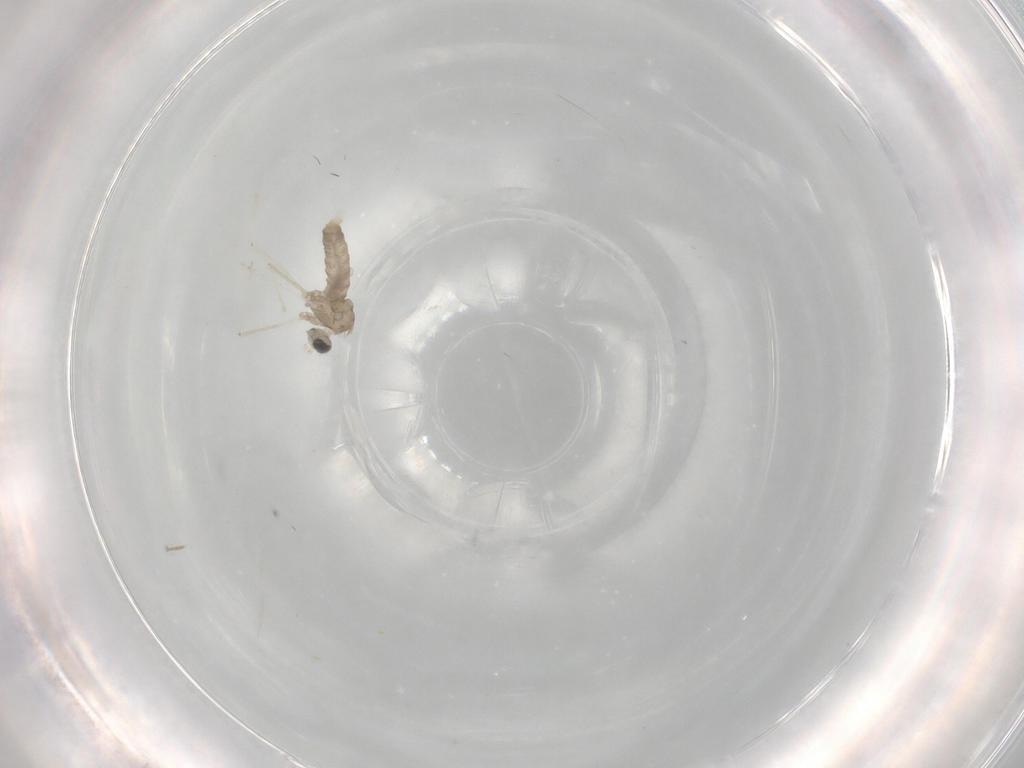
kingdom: Animalia
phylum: Arthropoda
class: Insecta
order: Diptera
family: Cecidomyiidae
